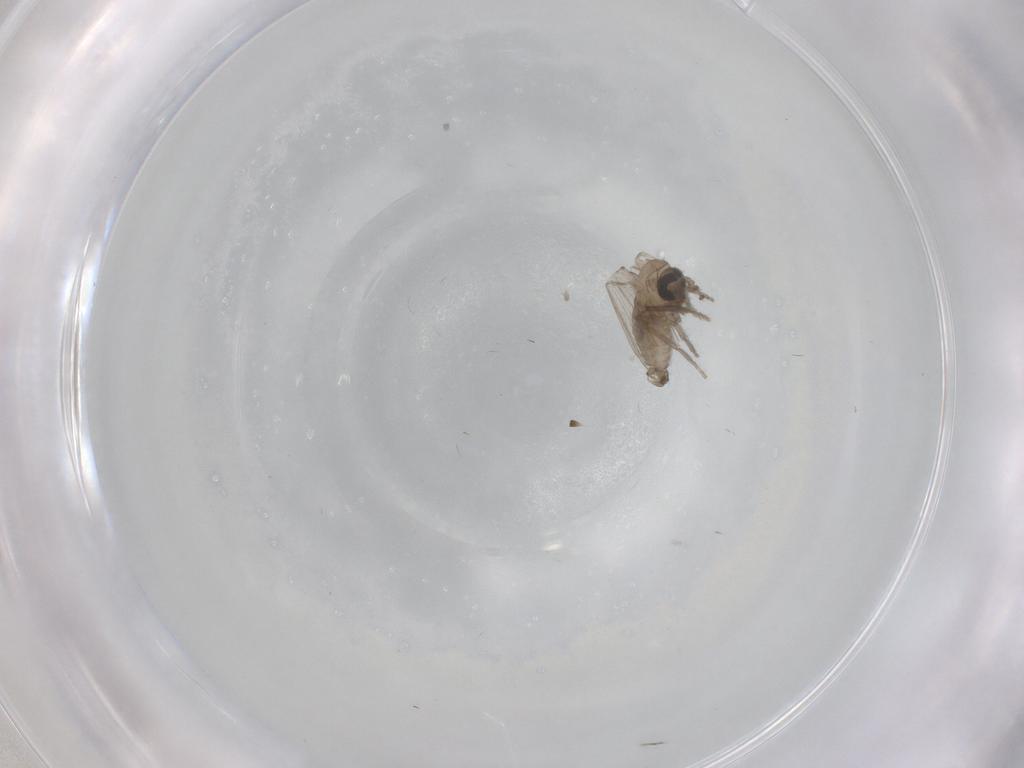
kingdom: Animalia
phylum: Arthropoda
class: Insecta
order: Diptera
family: Psychodidae
